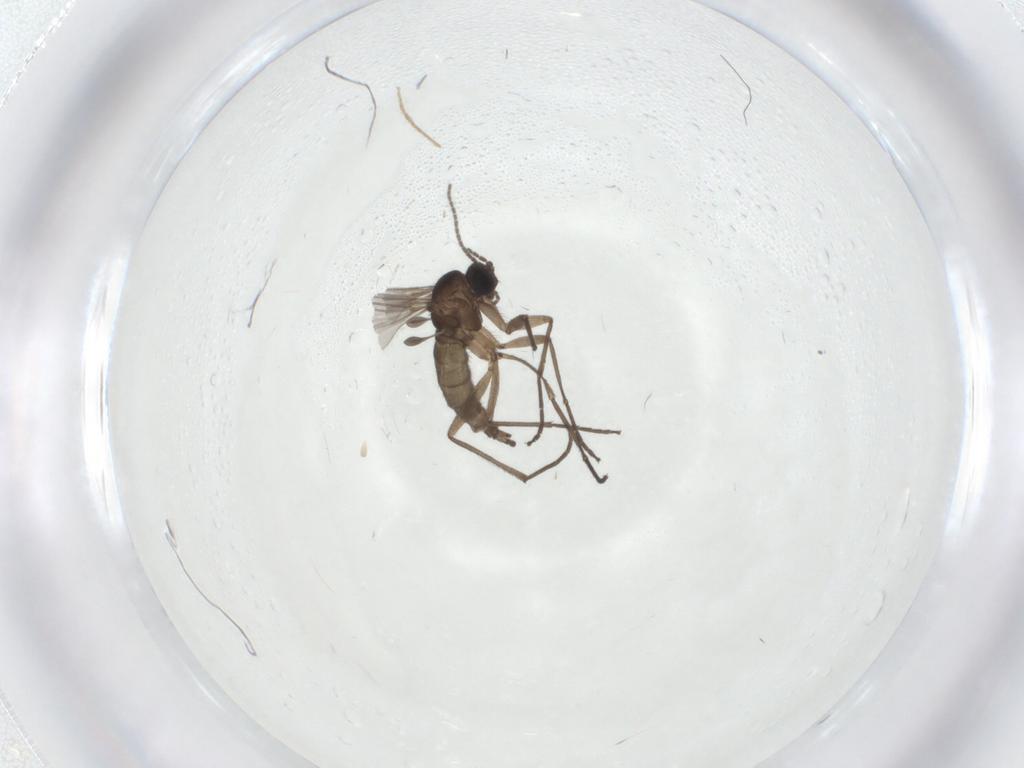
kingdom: Animalia
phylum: Arthropoda
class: Insecta
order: Diptera
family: Sciaridae
